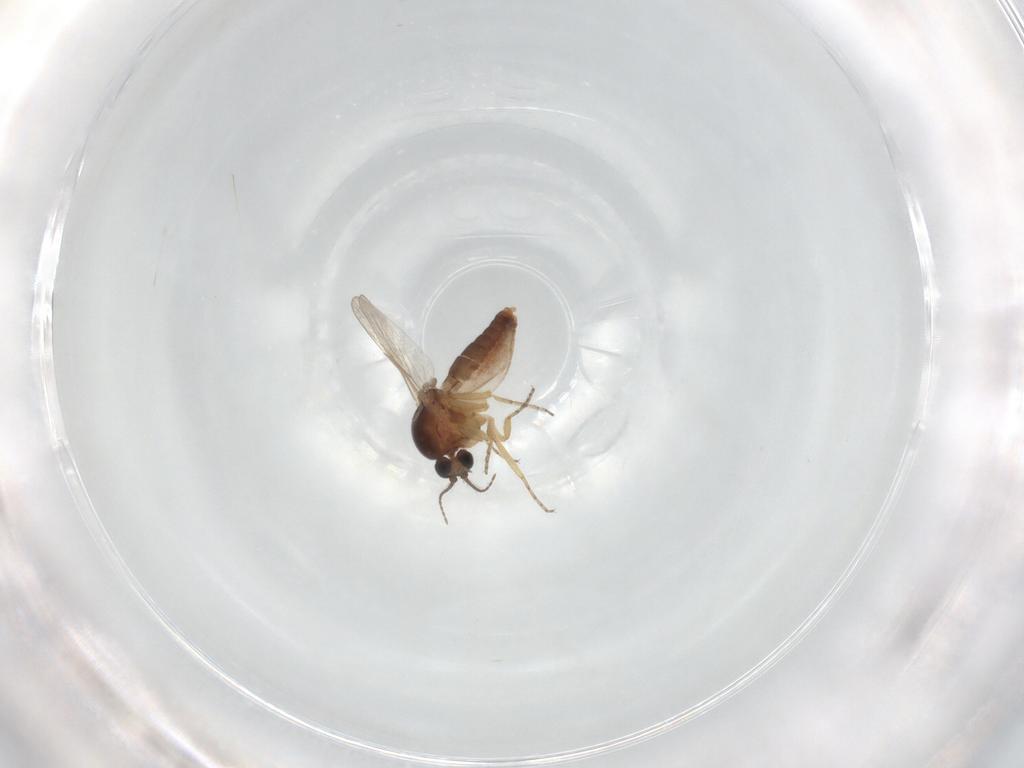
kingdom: Animalia
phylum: Arthropoda
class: Insecta
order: Diptera
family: Ceratopogonidae
